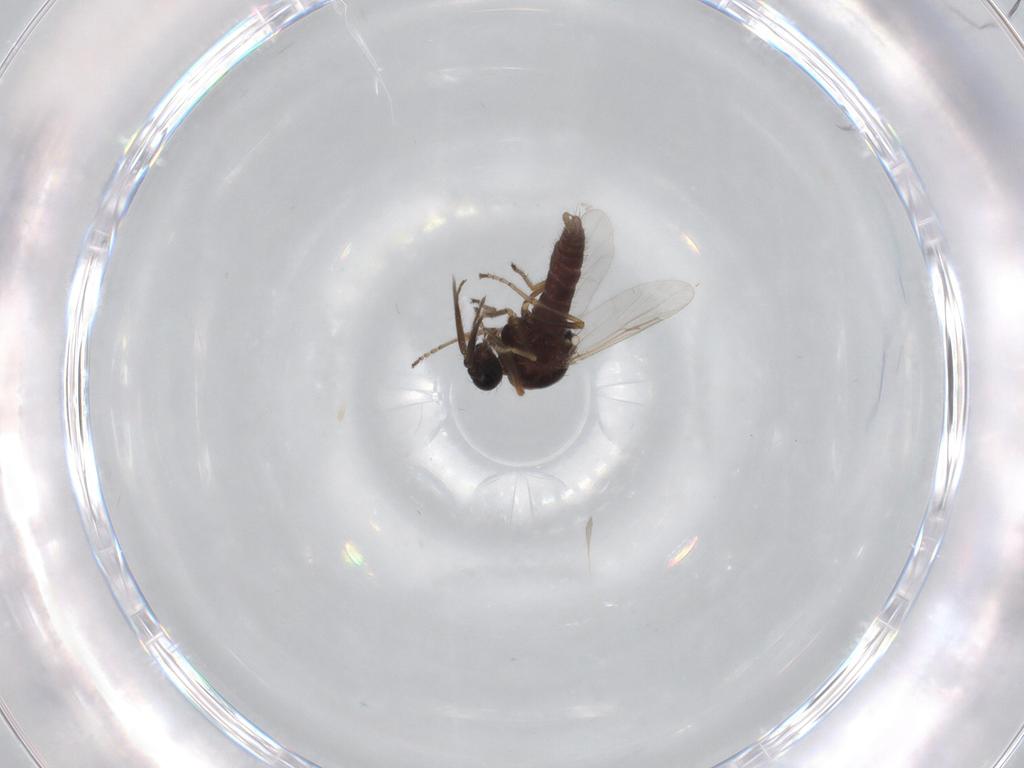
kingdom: Animalia
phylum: Arthropoda
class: Insecta
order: Diptera
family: Ceratopogonidae
